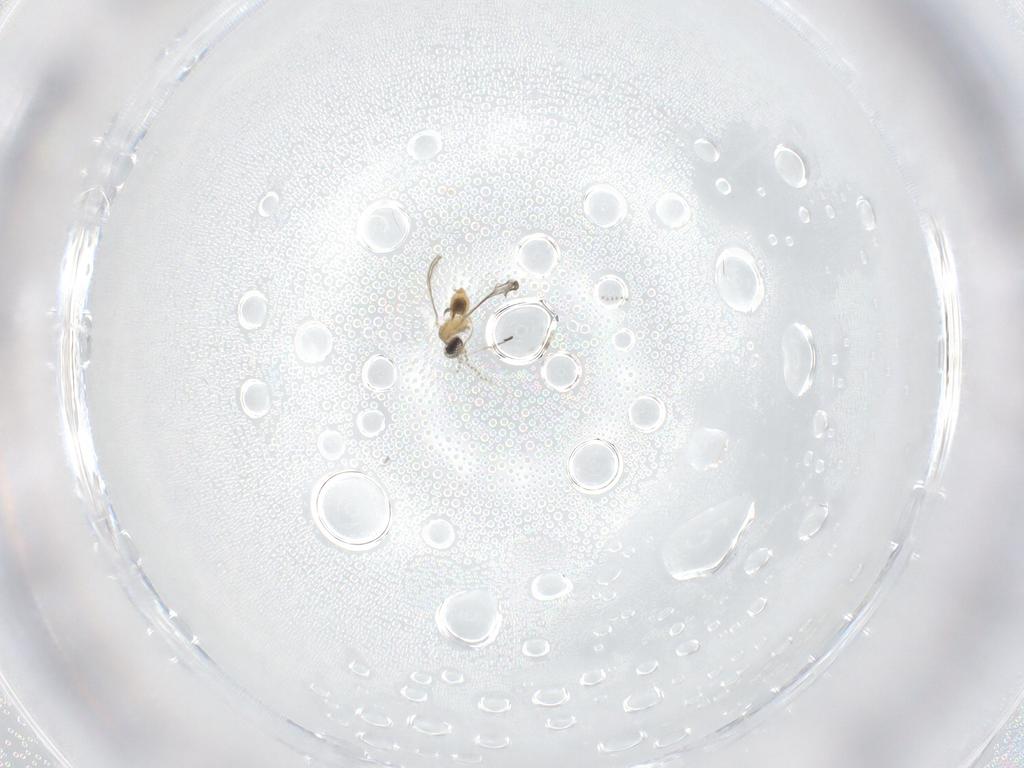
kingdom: Animalia
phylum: Arthropoda
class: Insecta
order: Diptera
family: Cecidomyiidae
